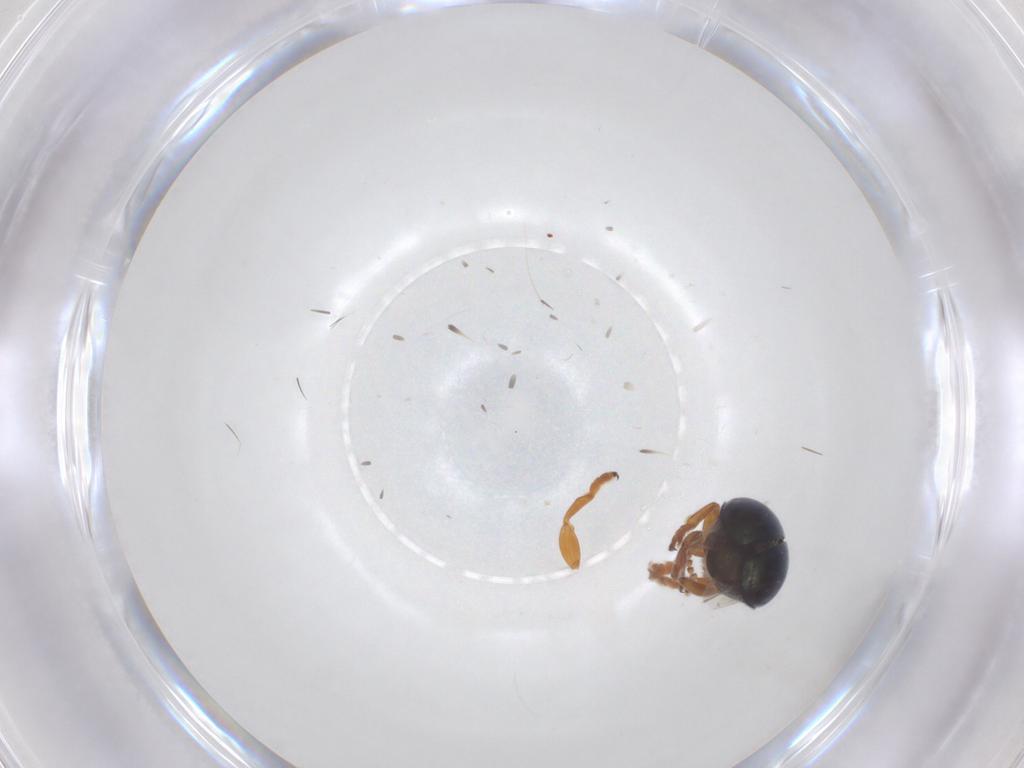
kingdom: Animalia
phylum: Arthropoda
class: Insecta
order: Coleoptera
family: Chrysomelidae
